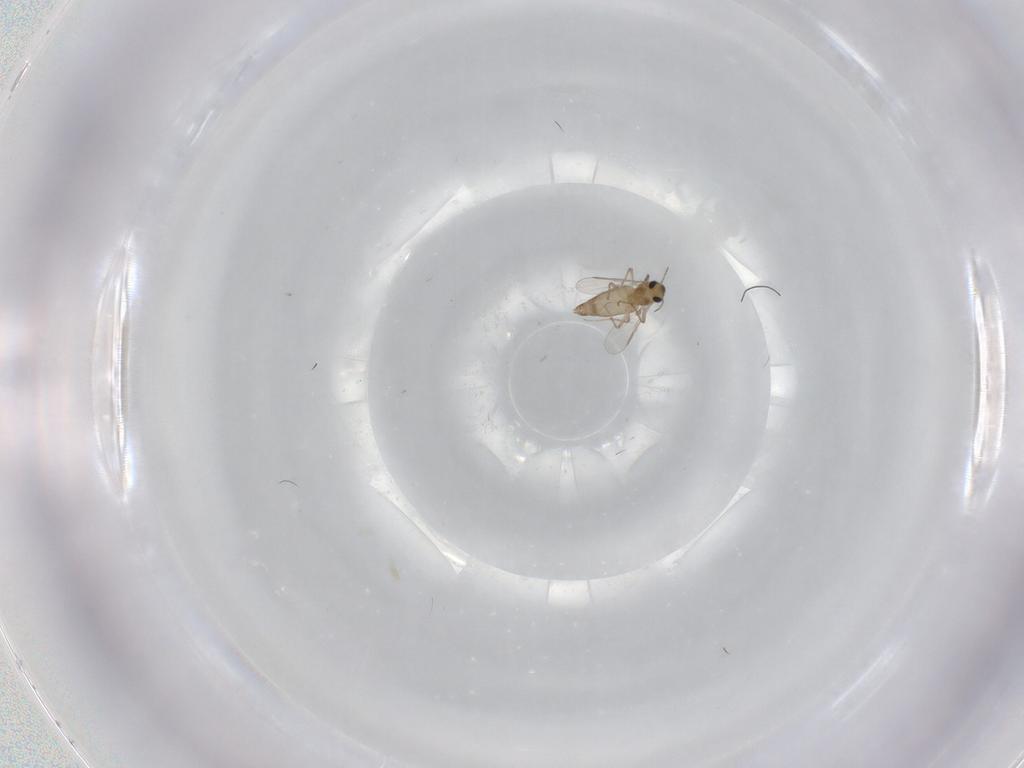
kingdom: Animalia
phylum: Arthropoda
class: Insecta
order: Diptera
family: Chironomidae
